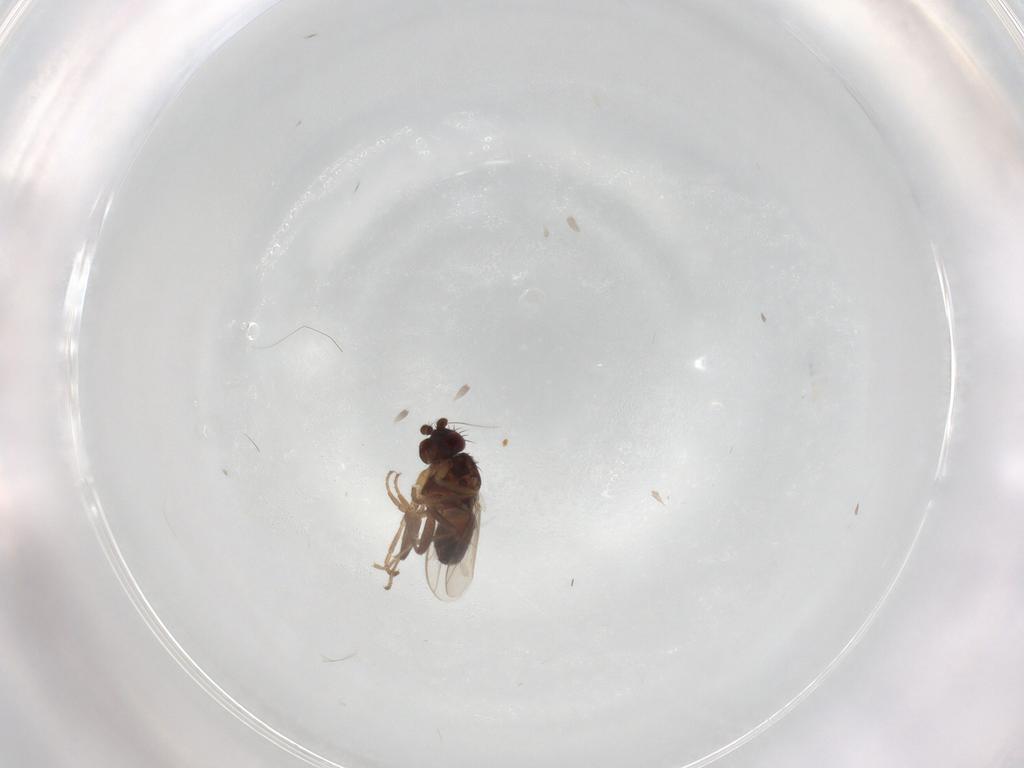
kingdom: Animalia
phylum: Arthropoda
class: Insecta
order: Diptera
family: Sphaeroceridae
